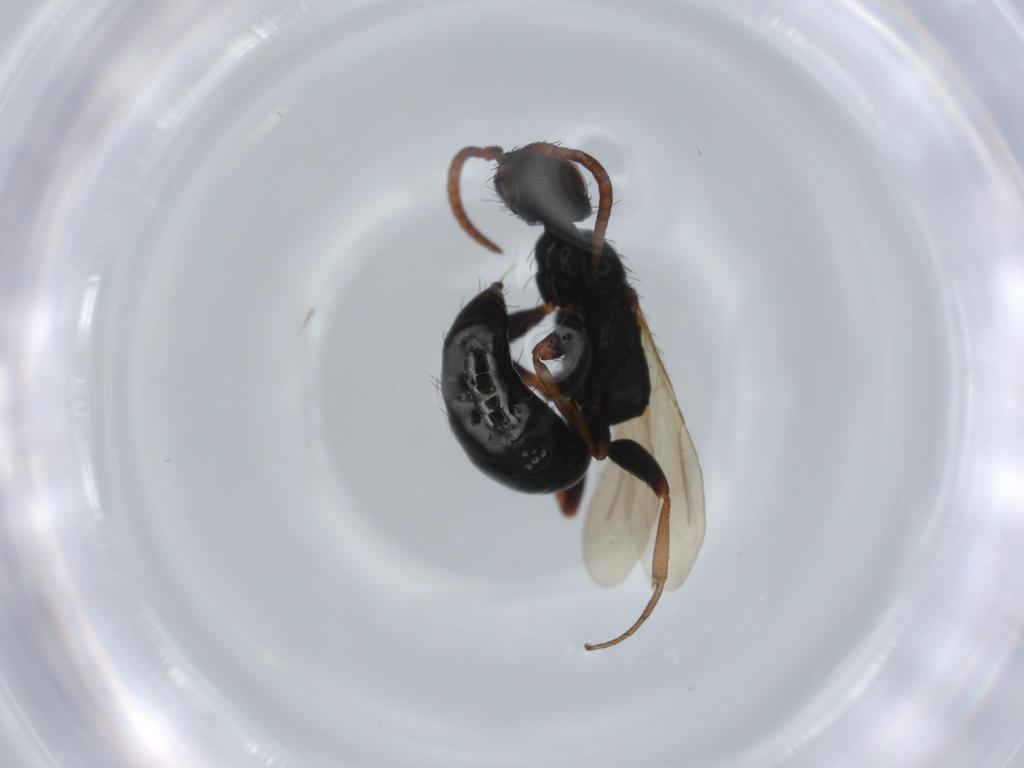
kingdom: Animalia
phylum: Arthropoda
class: Insecta
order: Hymenoptera
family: Bethylidae
